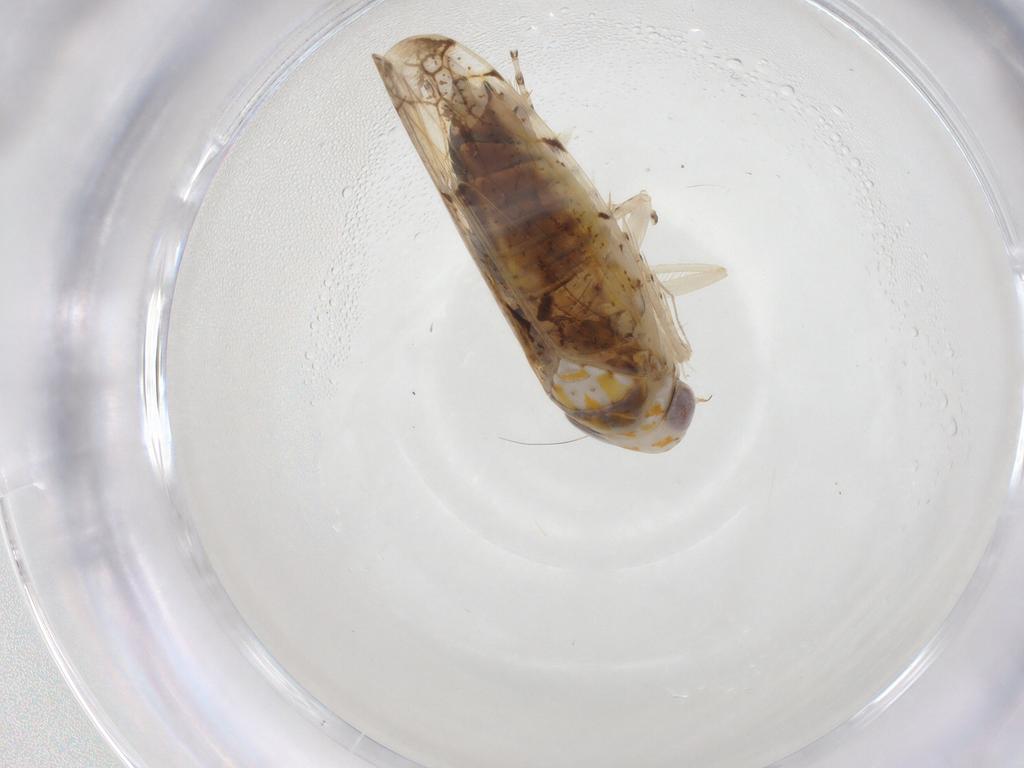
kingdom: Animalia
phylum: Arthropoda
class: Insecta
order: Hemiptera
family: Cicadellidae
